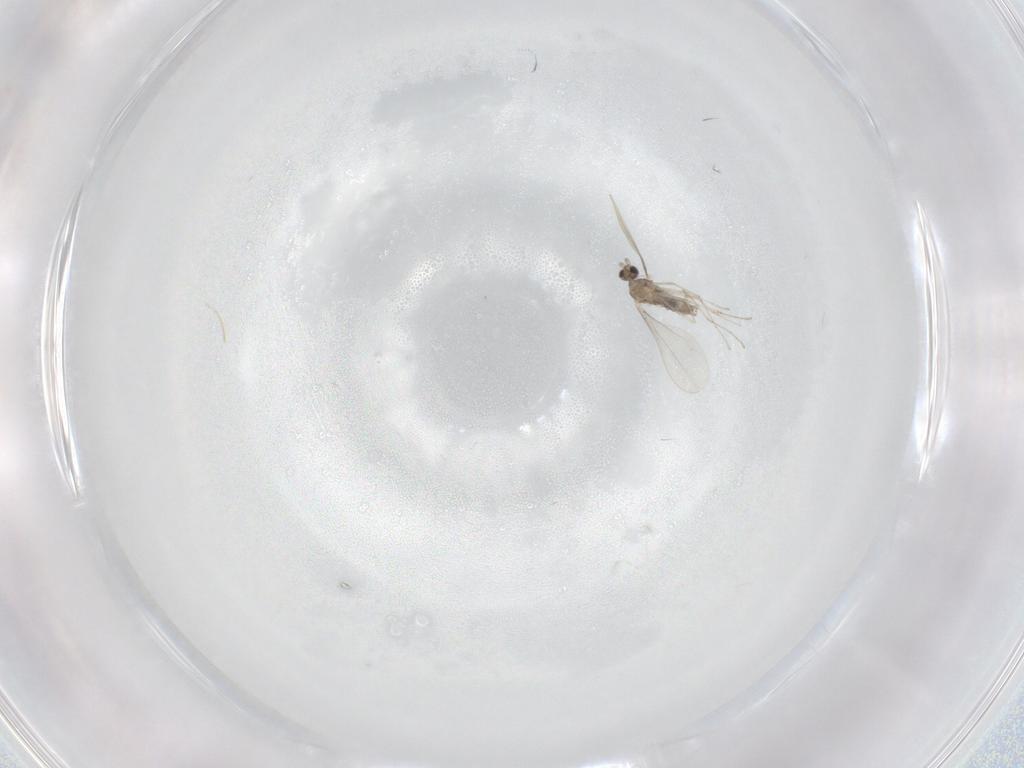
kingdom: Animalia
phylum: Arthropoda
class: Insecta
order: Diptera
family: Cecidomyiidae
